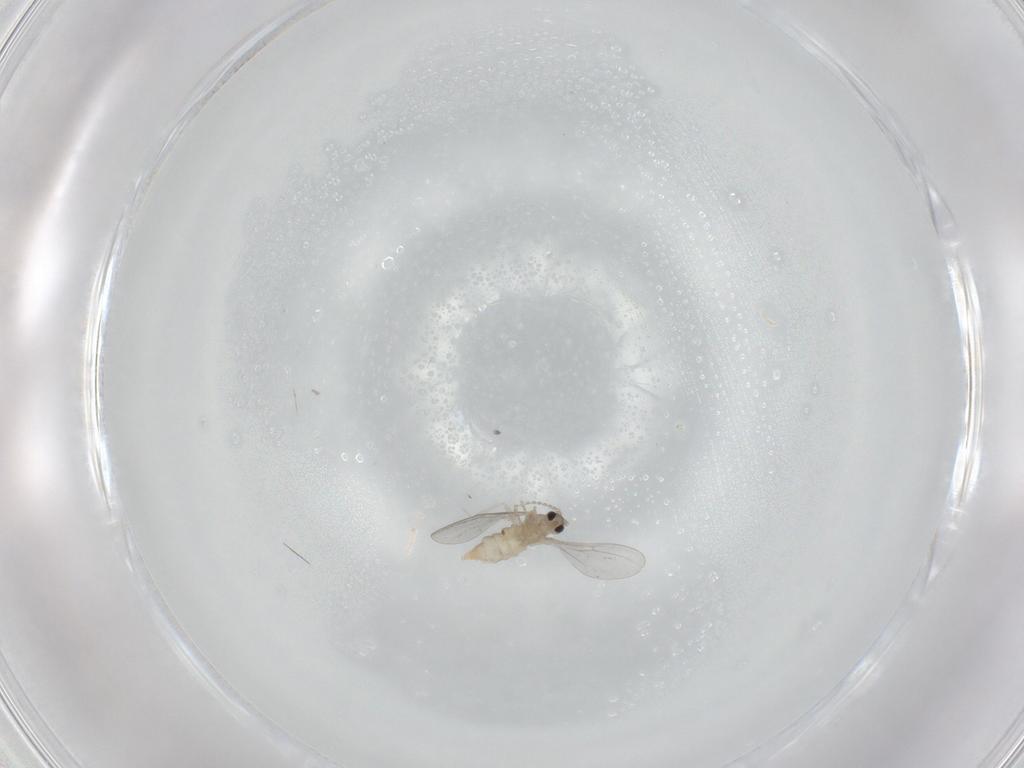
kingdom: Animalia
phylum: Arthropoda
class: Insecta
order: Diptera
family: Cecidomyiidae
